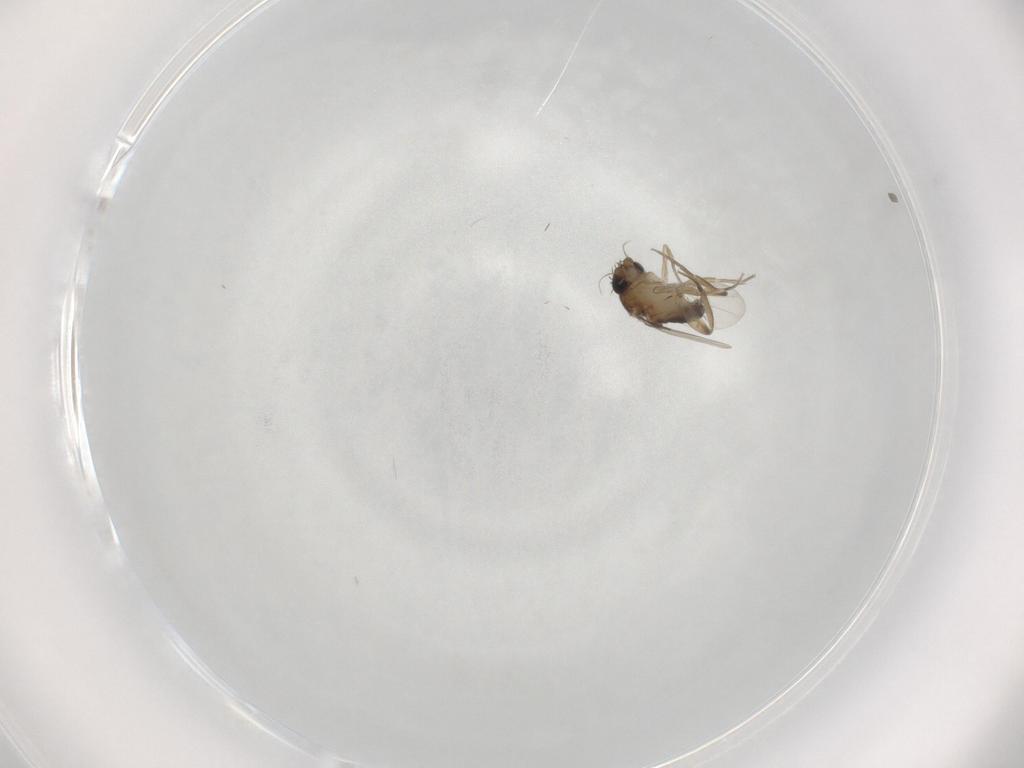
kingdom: Animalia
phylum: Arthropoda
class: Insecta
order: Diptera
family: Phoridae
